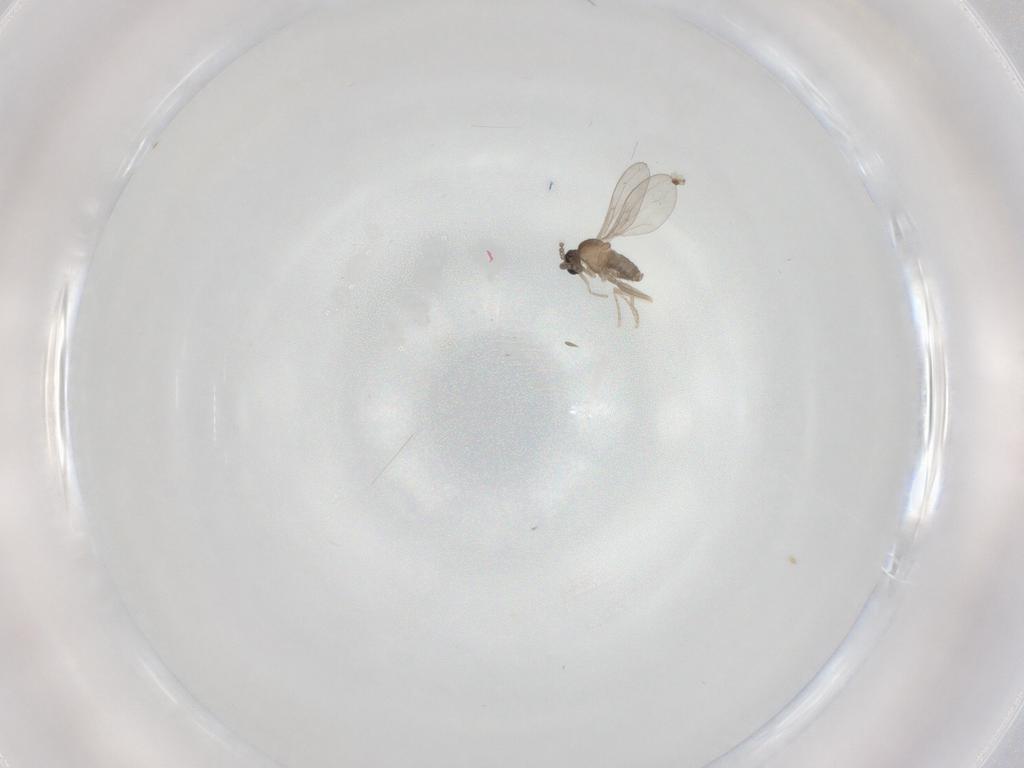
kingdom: Animalia
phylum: Arthropoda
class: Insecta
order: Diptera
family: Cecidomyiidae
